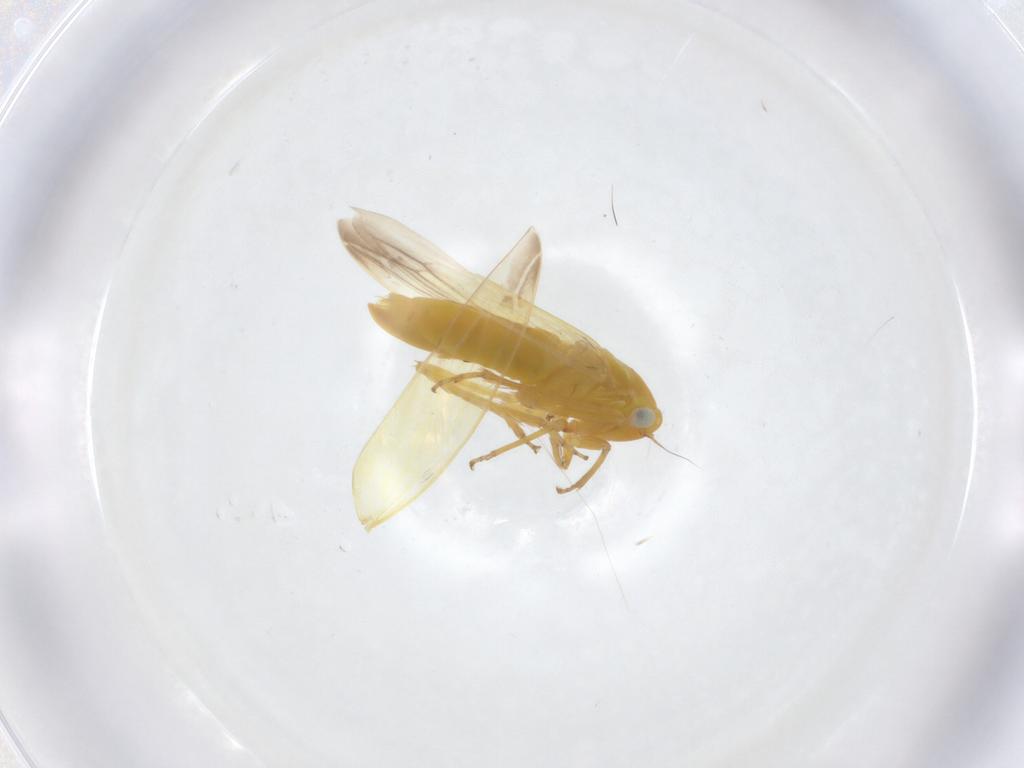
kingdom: Animalia
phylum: Arthropoda
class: Insecta
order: Hemiptera
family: Cicadellidae
